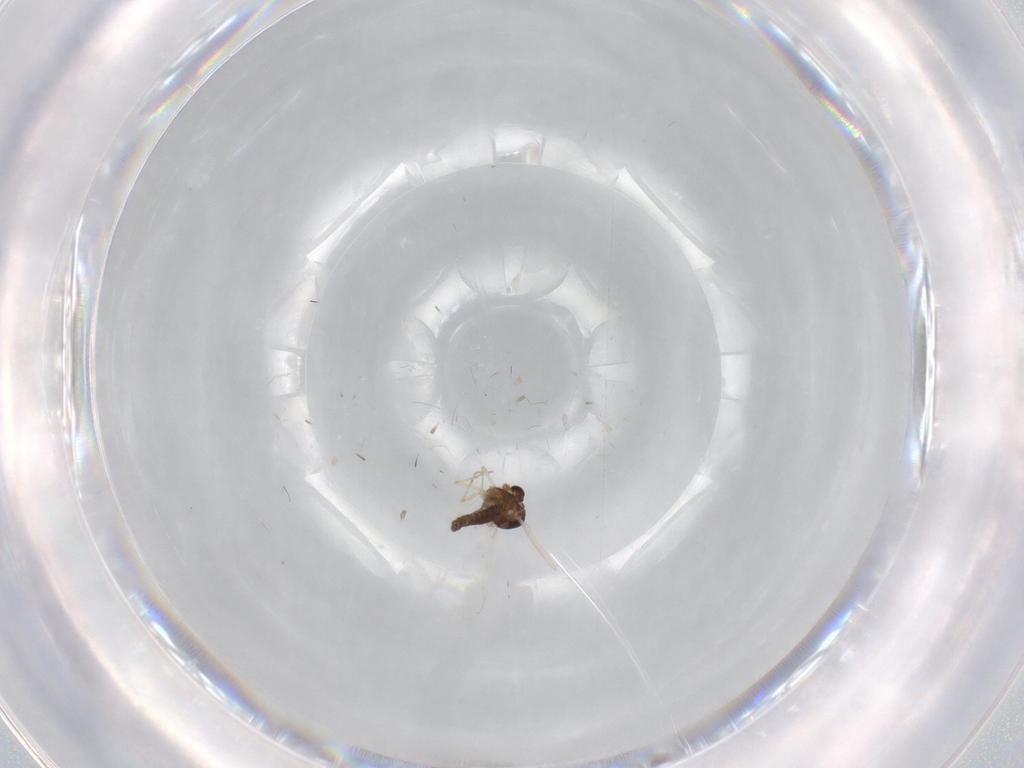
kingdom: Animalia
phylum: Arthropoda
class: Insecta
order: Diptera
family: Chironomidae
